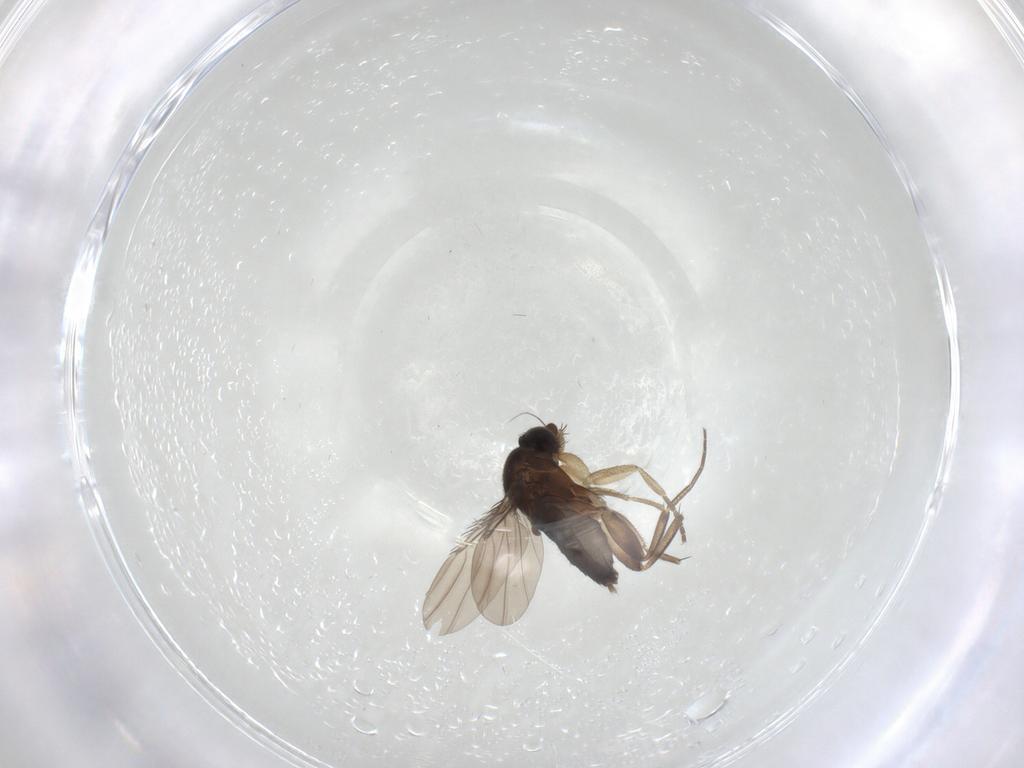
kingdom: Animalia
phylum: Arthropoda
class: Insecta
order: Diptera
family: Phoridae
